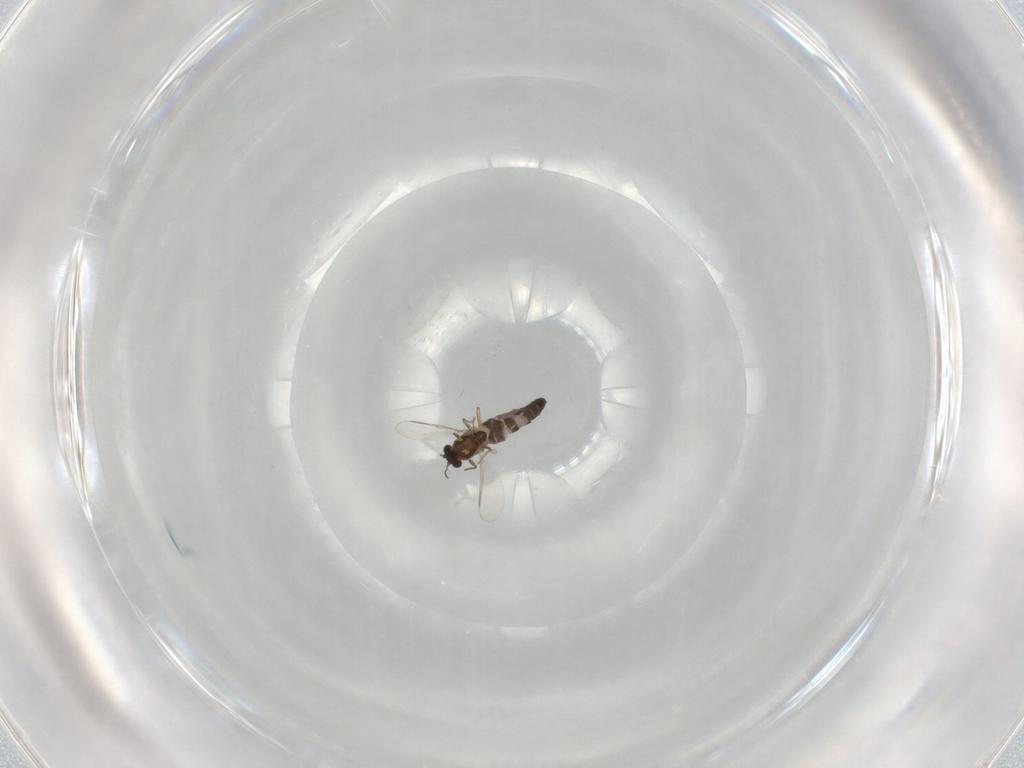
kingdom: Animalia
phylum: Arthropoda
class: Insecta
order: Diptera
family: Chironomidae
